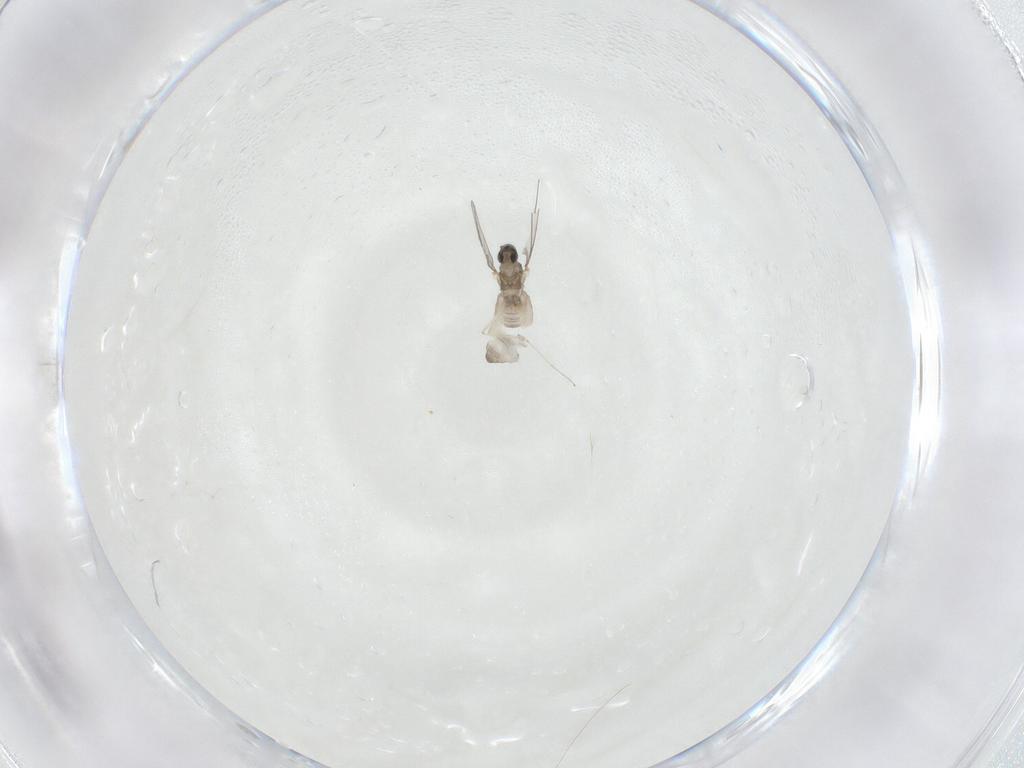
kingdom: Animalia
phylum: Arthropoda
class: Insecta
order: Diptera
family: Cecidomyiidae
